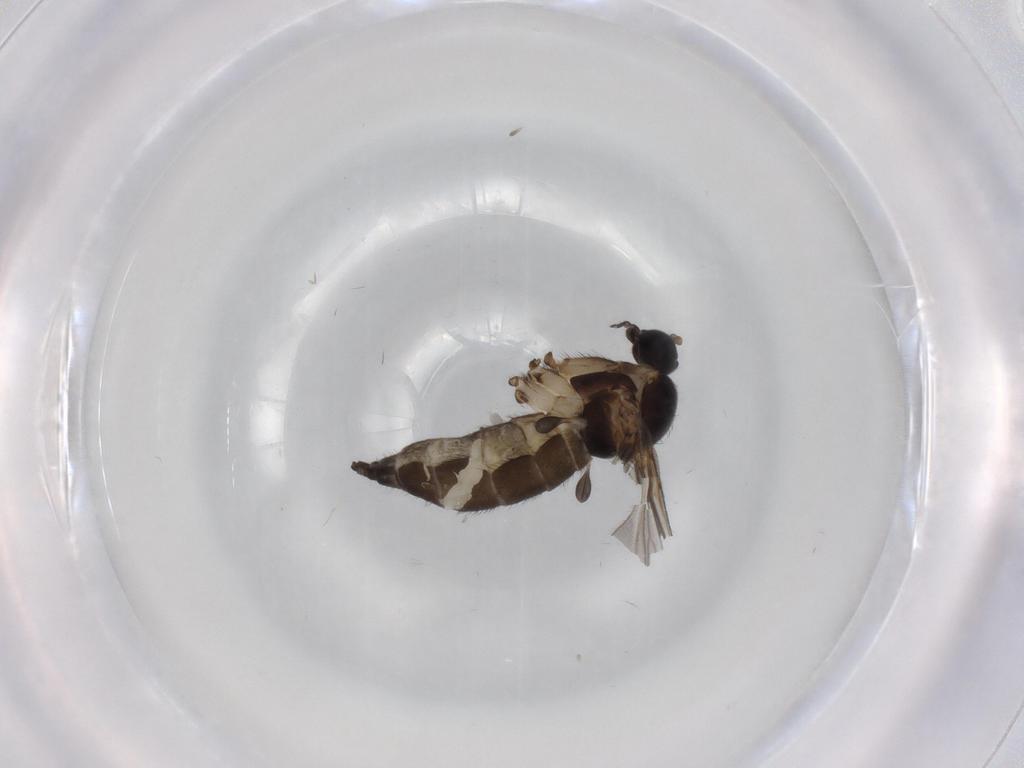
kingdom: Animalia
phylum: Arthropoda
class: Insecta
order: Diptera
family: Sciaridae
